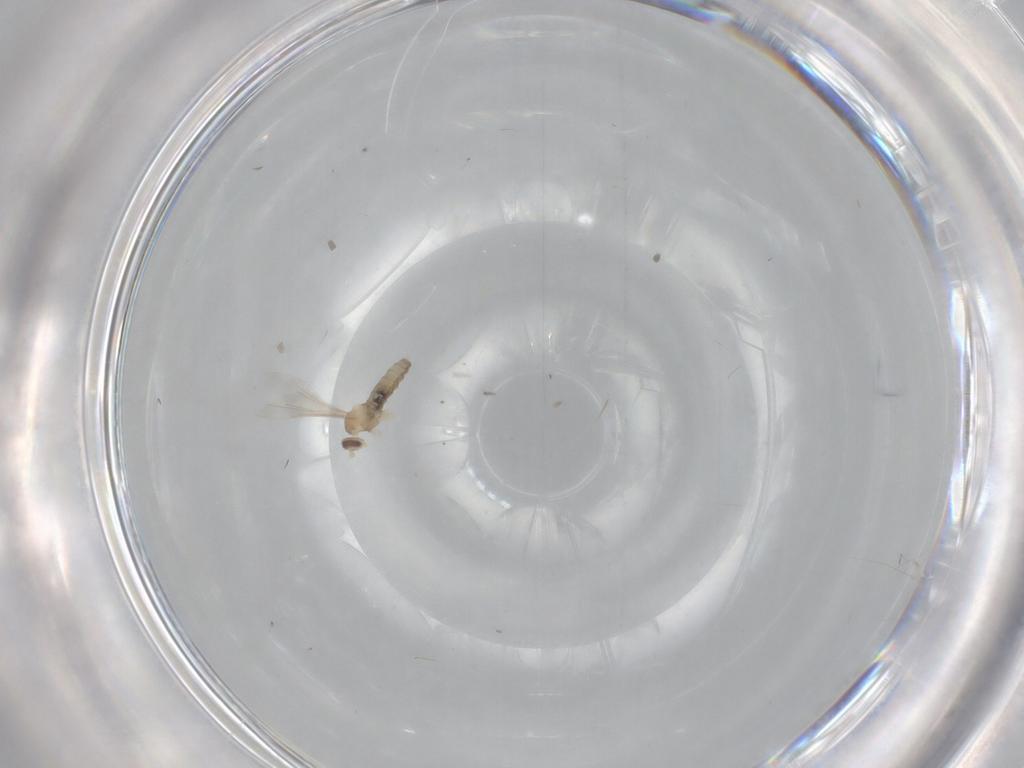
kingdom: Animalia
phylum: Arthropoda
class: Insecta
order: Diptera
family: Cecidomyiidae
